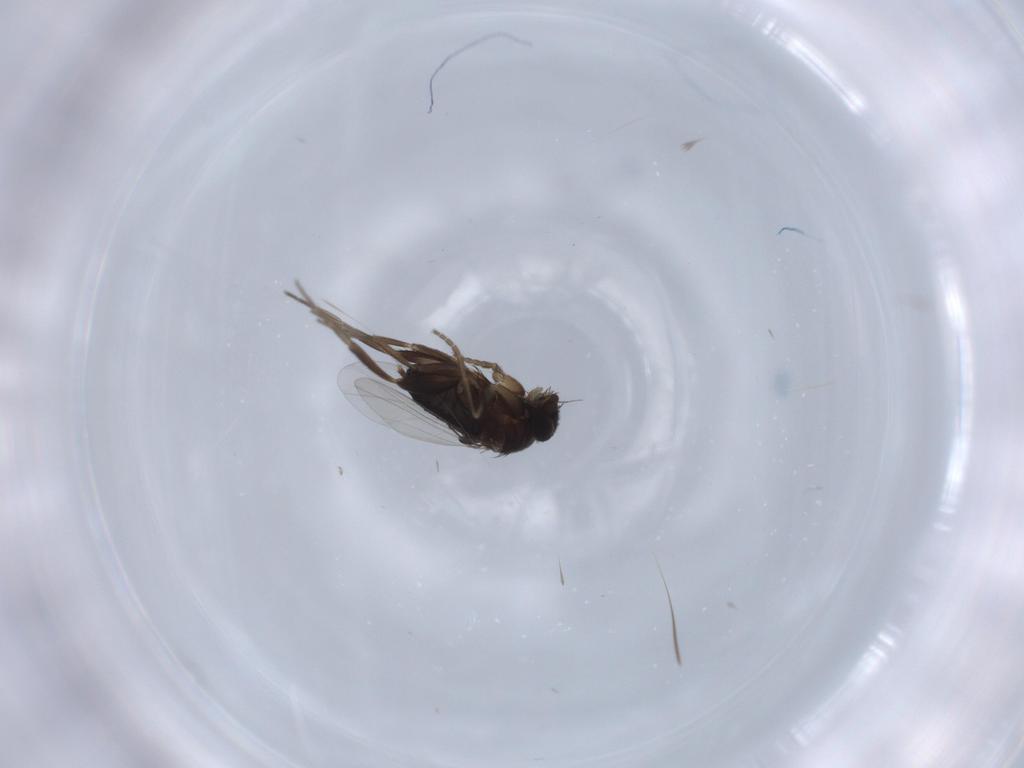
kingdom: Animalia
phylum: Arthropoda
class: Insecta
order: Diptera
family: Phoridae
